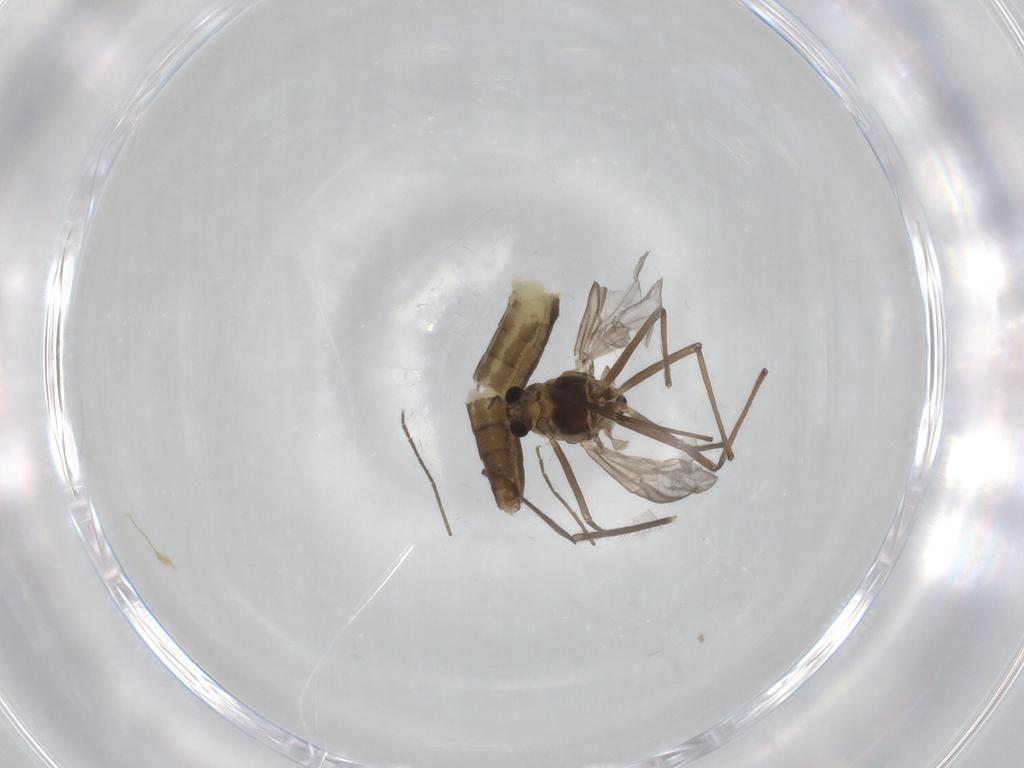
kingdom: Animalia
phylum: Arthropoda
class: Insecta
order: Diptera
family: Chironomidae
